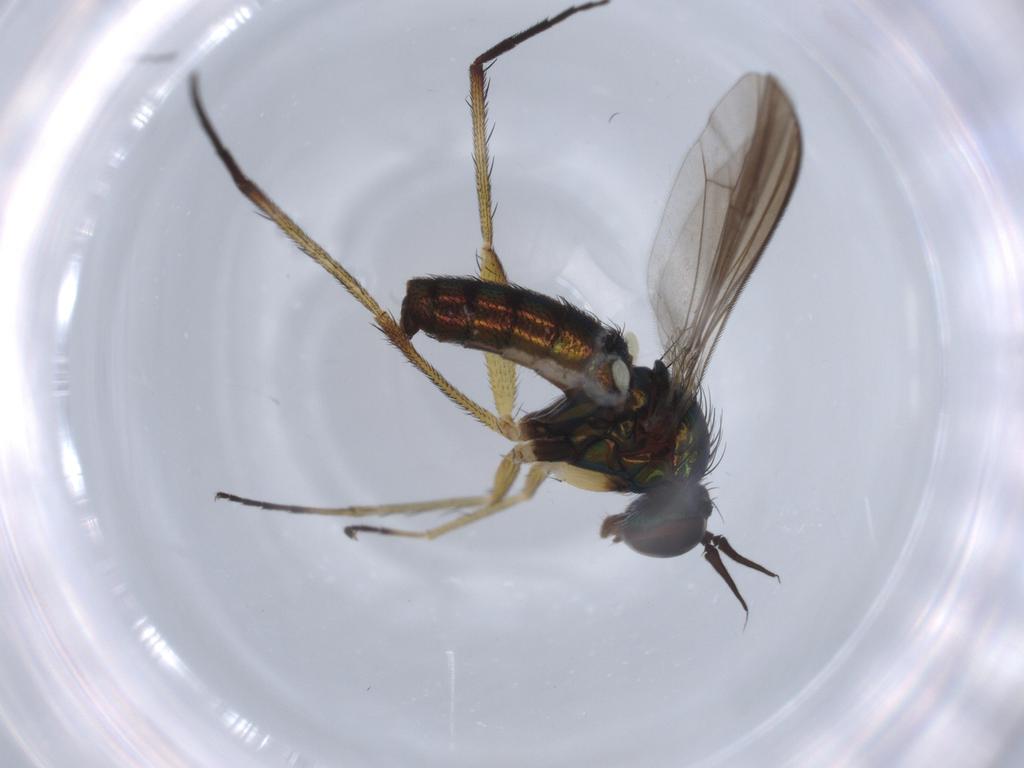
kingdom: Animalia
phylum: Arthropoda
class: Insecta
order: Diptera
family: Dolichopodidae
